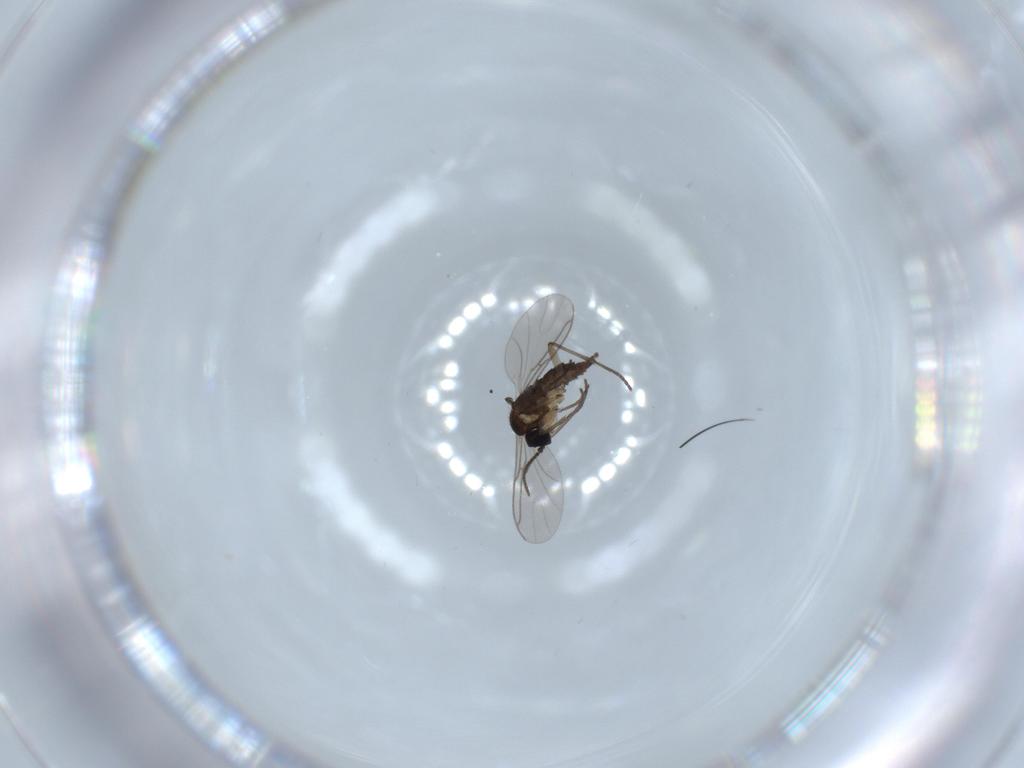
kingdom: Animalia
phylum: Arthropoda
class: Insecta
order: Diptera
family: Sciaridae
